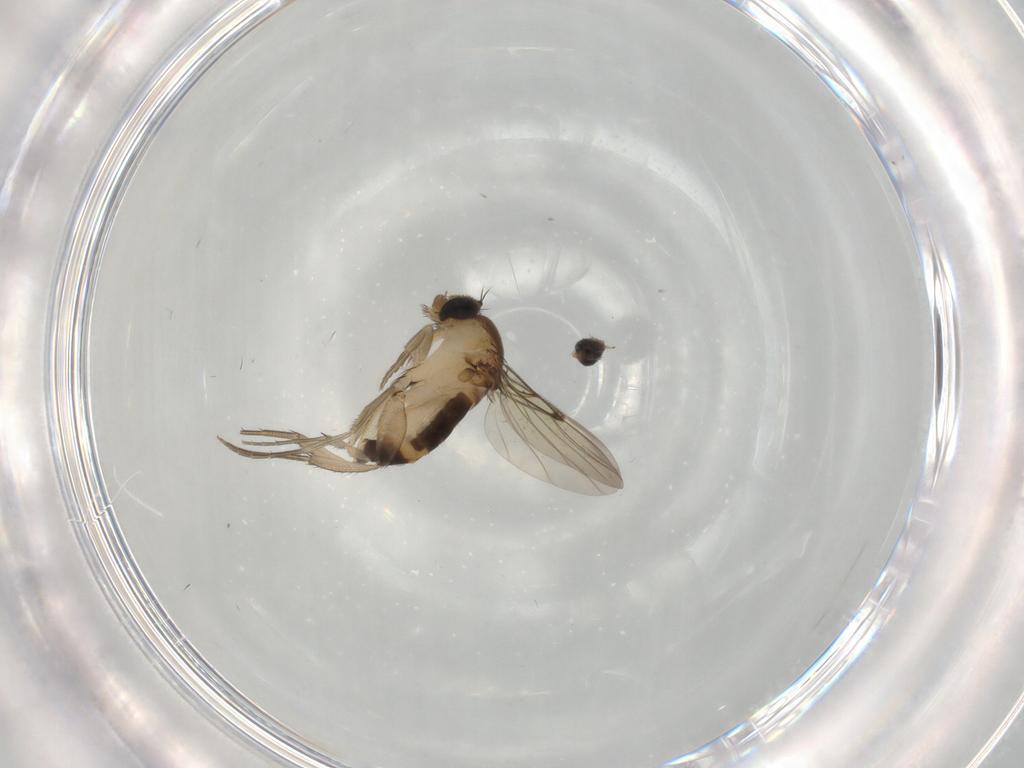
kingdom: Animalia
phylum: Arthropoda
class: Insecta
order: Diptera
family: Phoridae
